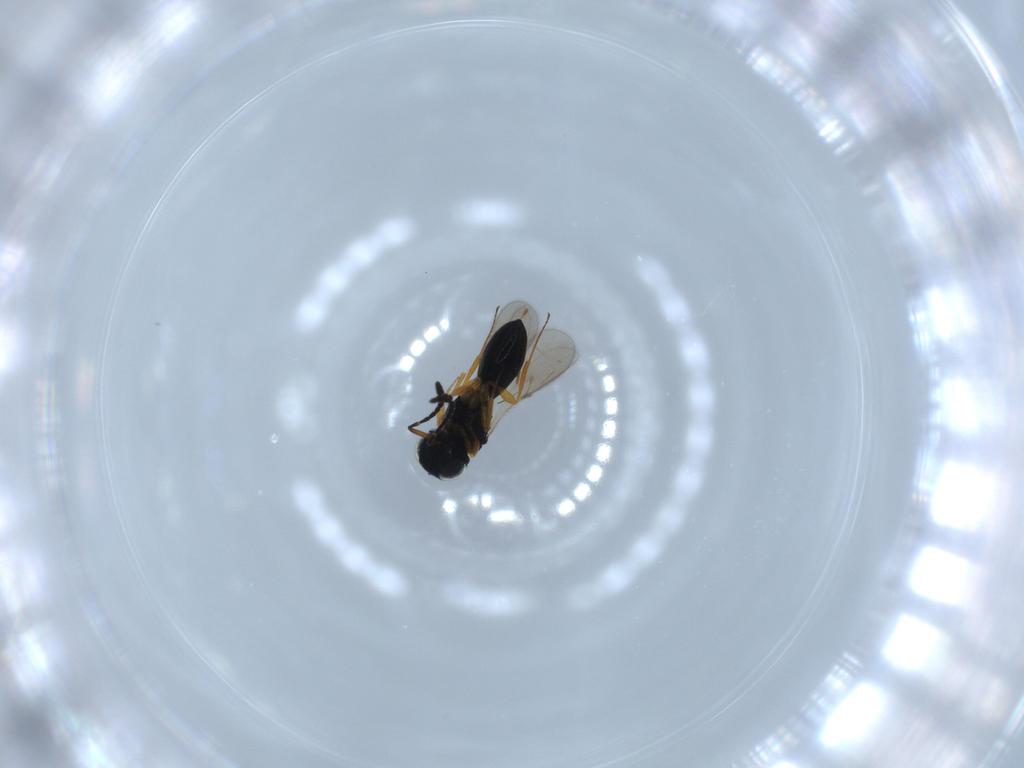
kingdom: Animalia
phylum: Arthropoda
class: Insecta
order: Hymenoptera
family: Scelionidae
